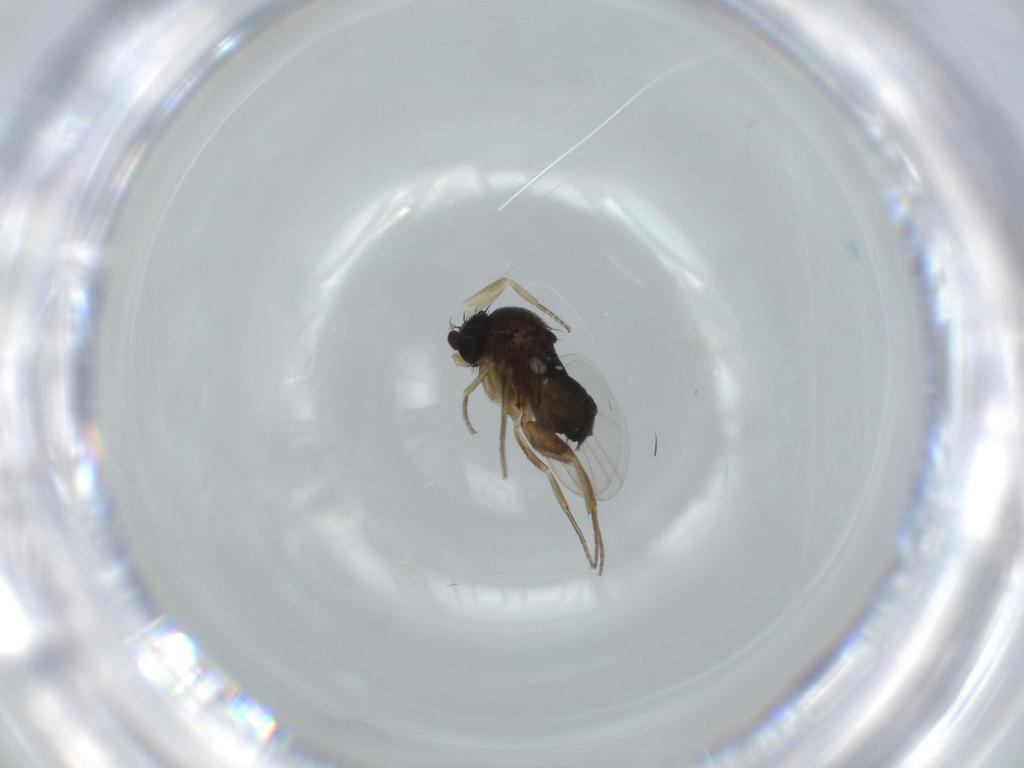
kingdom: Animalia
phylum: Arthropoda
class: Insecta
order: Diptera
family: Phoridae
